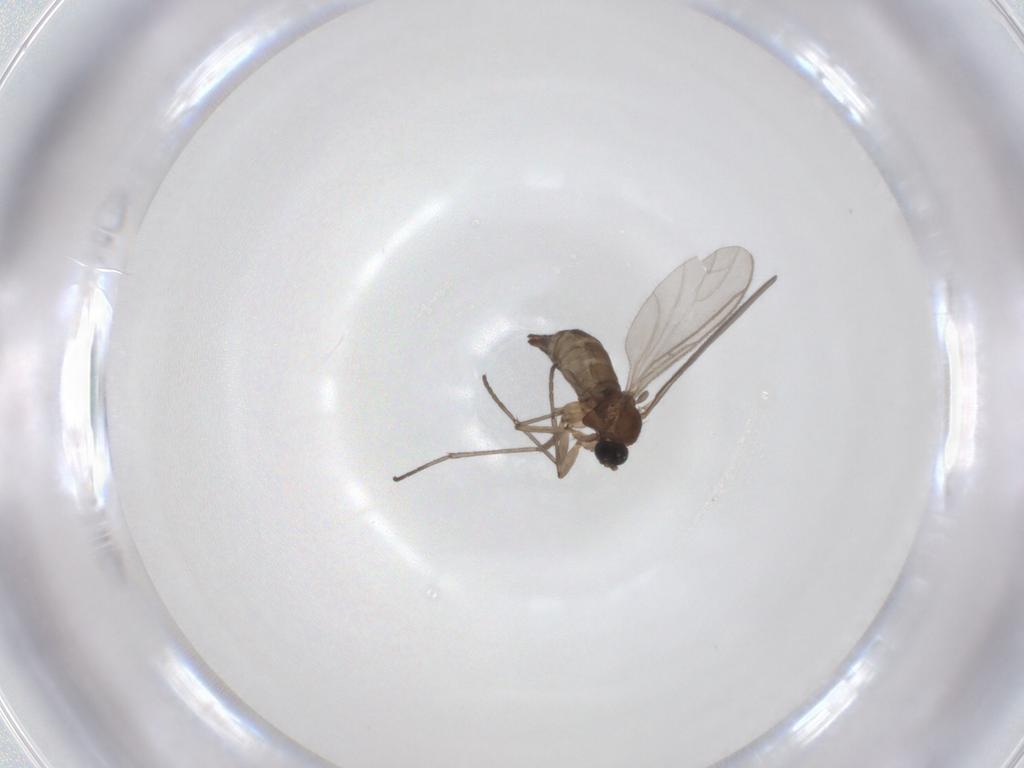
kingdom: Animalia
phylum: Arthropoda
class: Insecta
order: Diptera
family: Sciaridae
